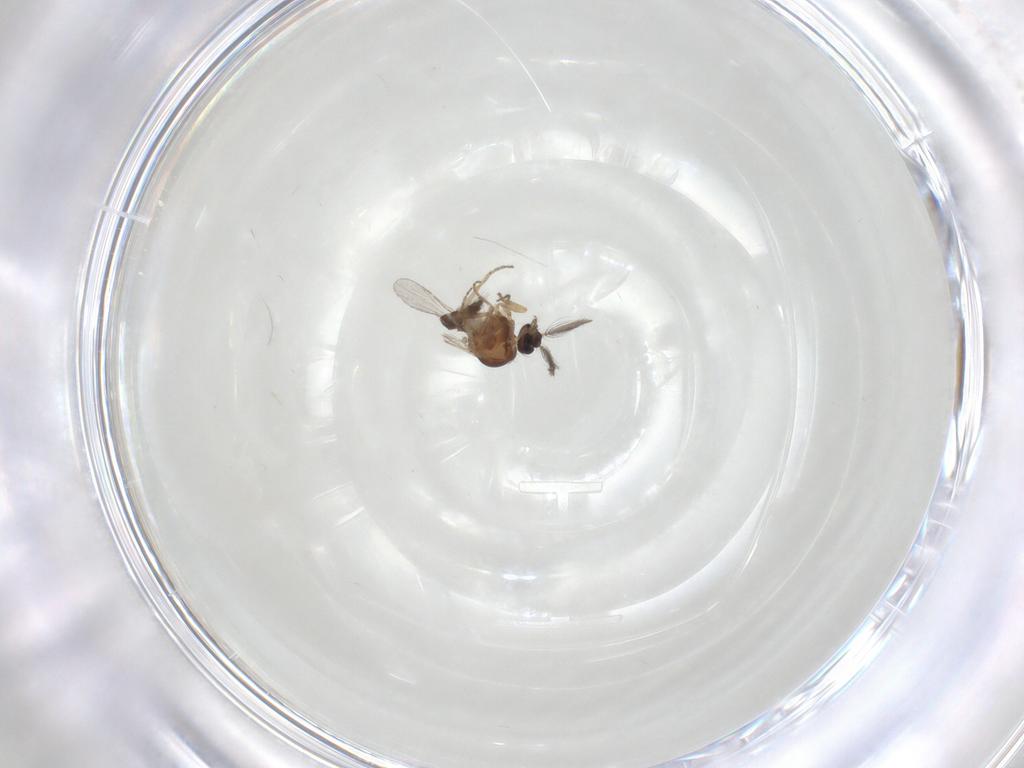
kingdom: Animalia
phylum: Arthropoda
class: Insecta
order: Diptera
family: Ceratopogonidae
